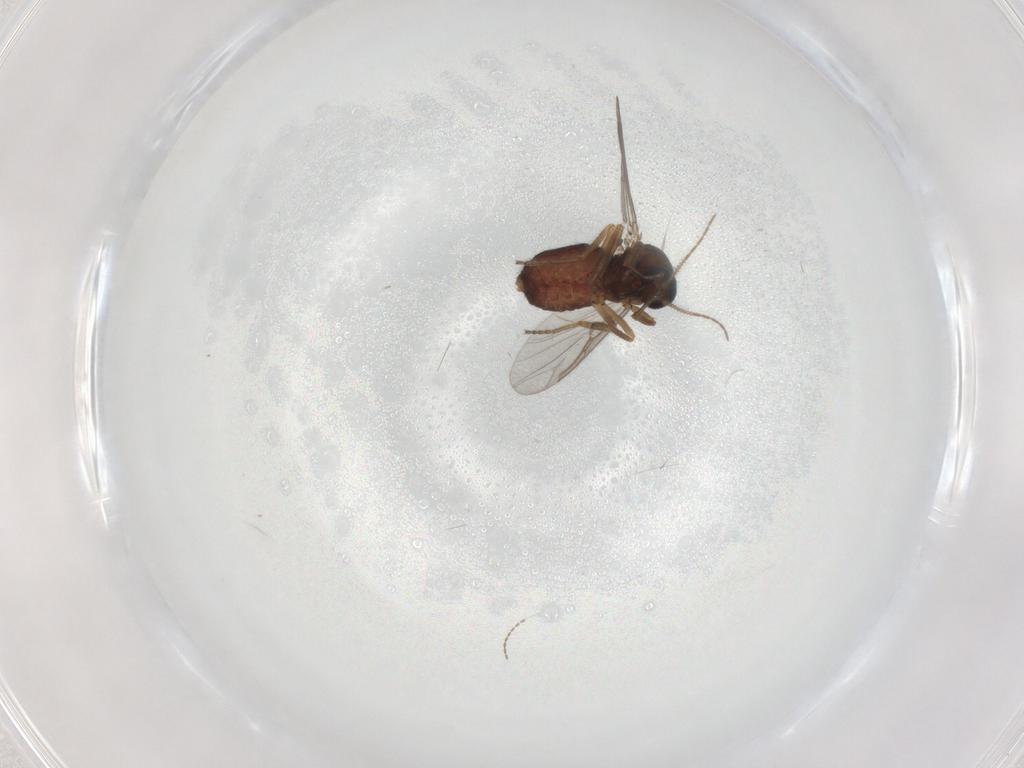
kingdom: Animalia
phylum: Arthropoda
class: Insecta
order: Diptera
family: Ceratopogonidae
